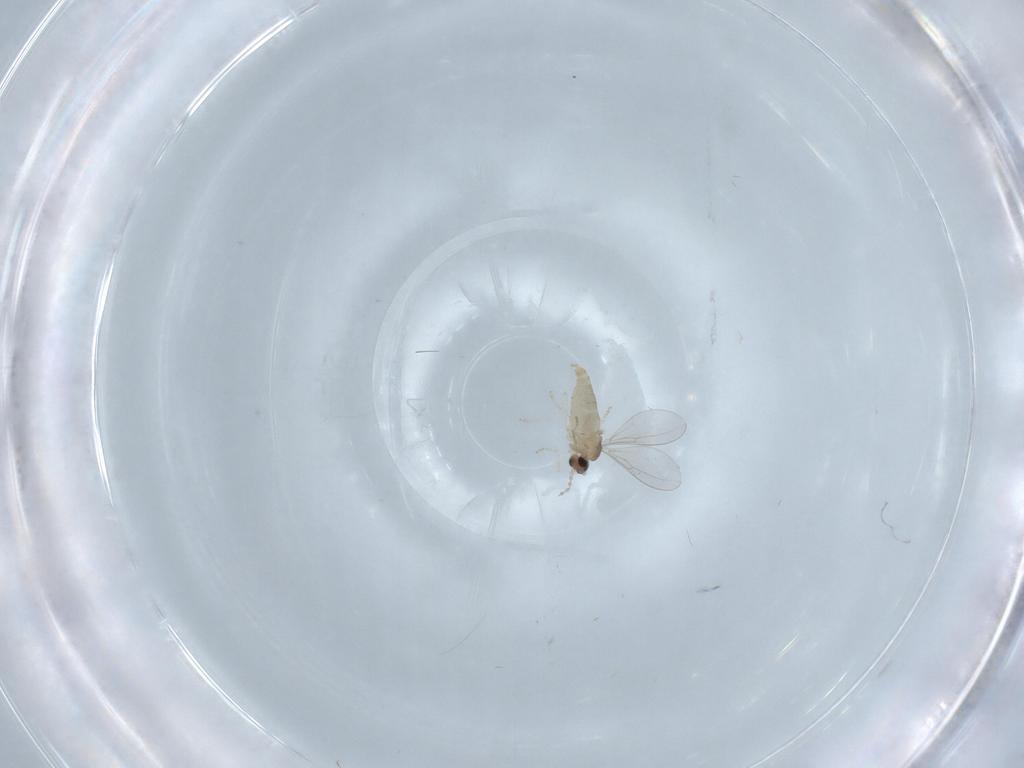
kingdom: Animalia
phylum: Arthropoda
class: Insecta
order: Diptera
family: Cecidomyiidae
